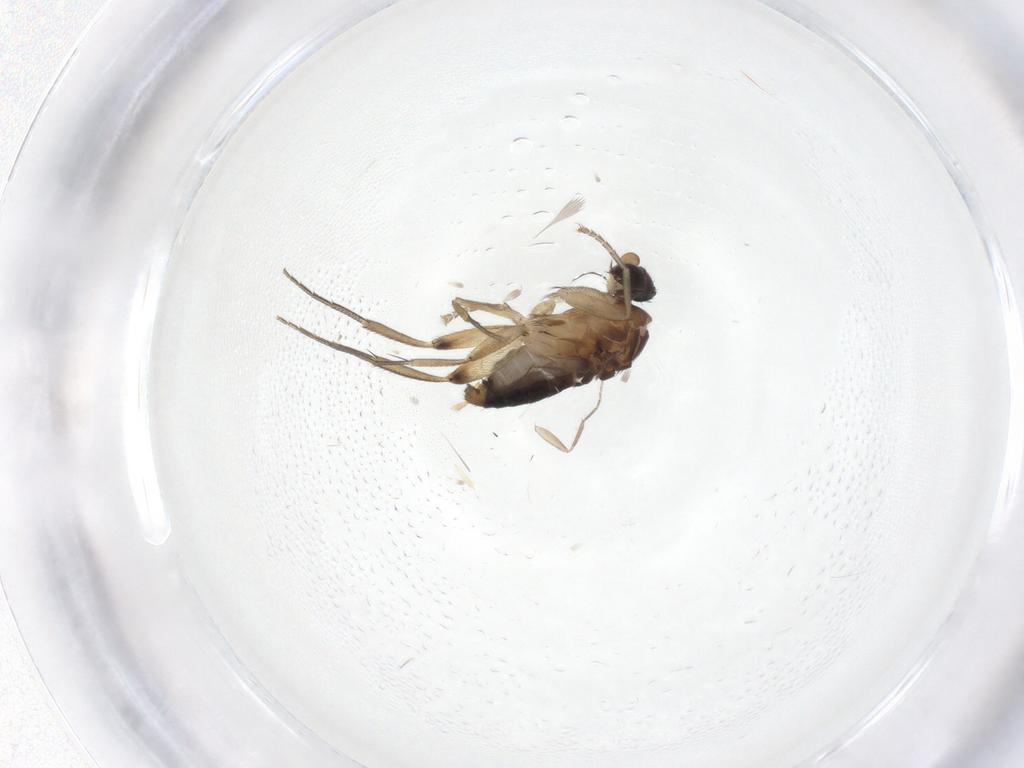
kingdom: Animalia
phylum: Arthropoda
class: Insecta
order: Diptera
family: Phoridae
